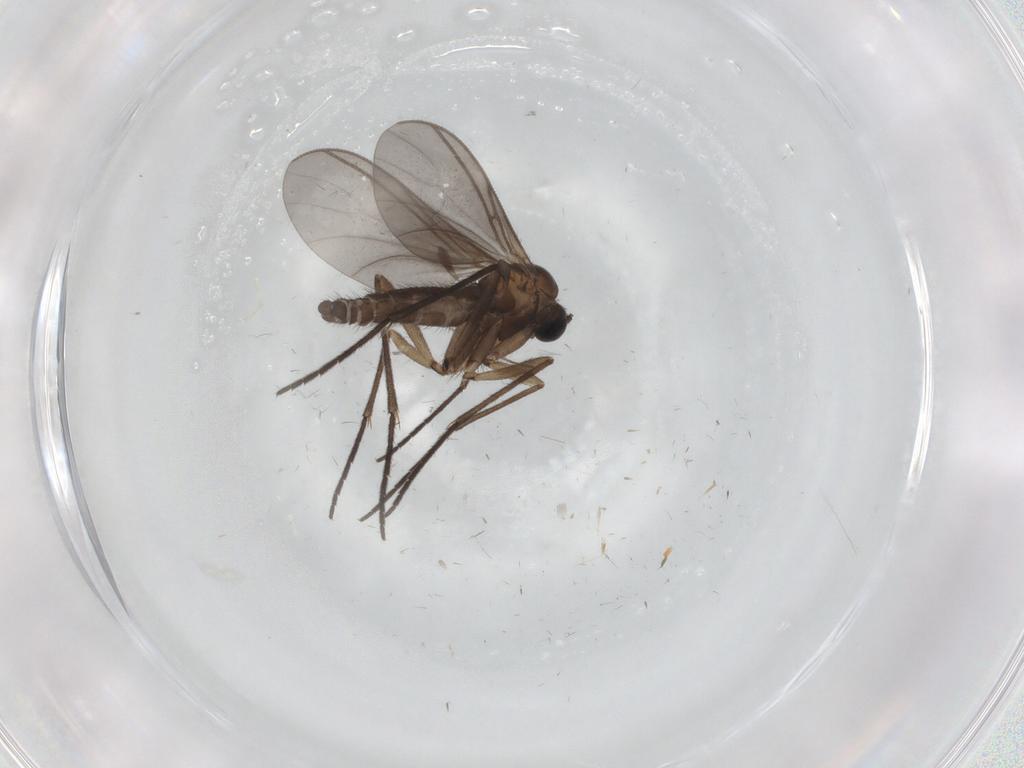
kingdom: Animalia
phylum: Arthropoda
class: Insecta
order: Diptera
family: Sciaridae
